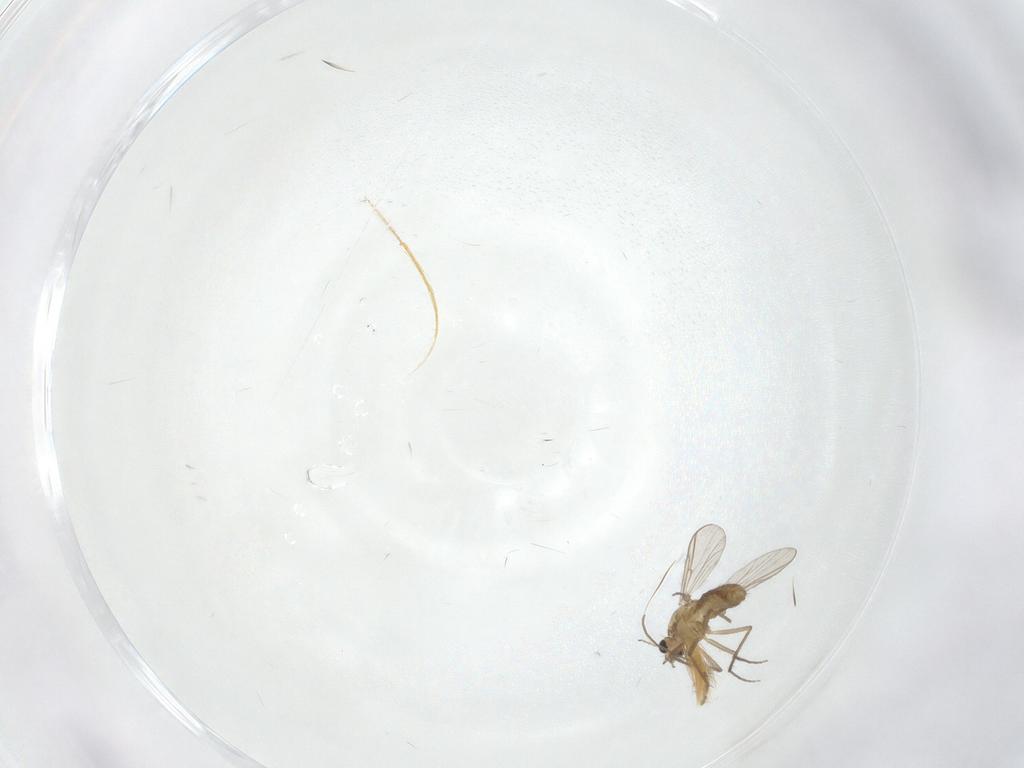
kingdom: Animalia
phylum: Arthropoda
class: Insecta
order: Diptera
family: Chironomidae
